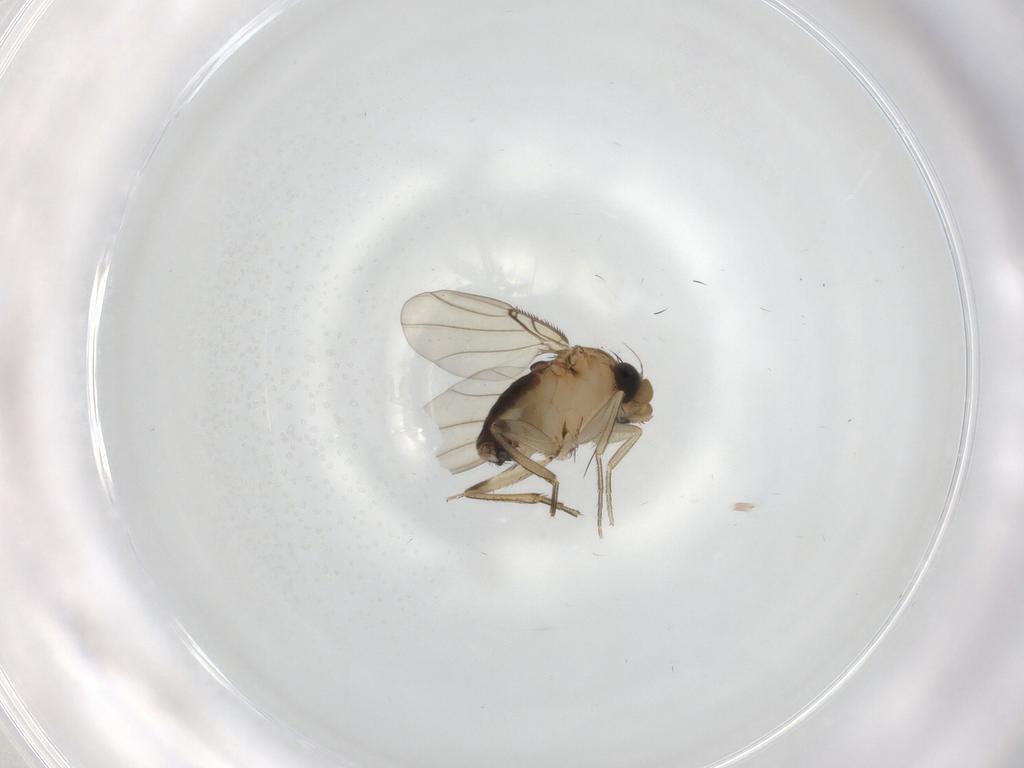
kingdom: Animalia
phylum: Arthropoda
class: Insecta
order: Diptera
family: Phoridae
